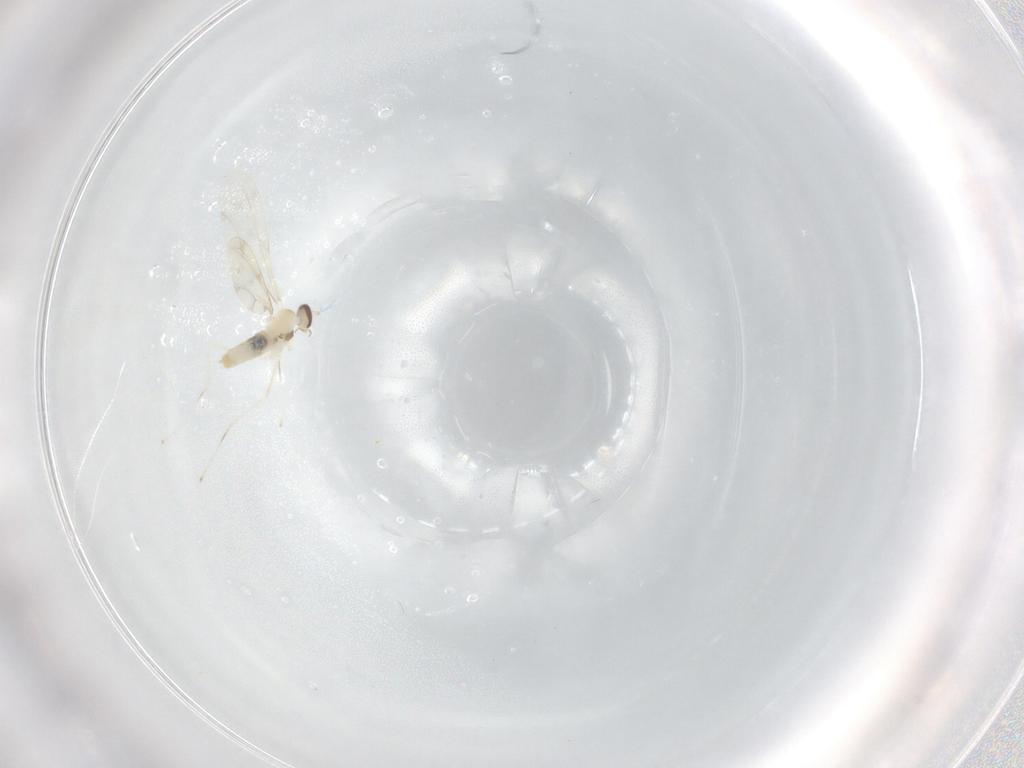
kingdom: Animalia
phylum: Arthropoda
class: Insecta
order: Diptera
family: Cecidomyiidae
